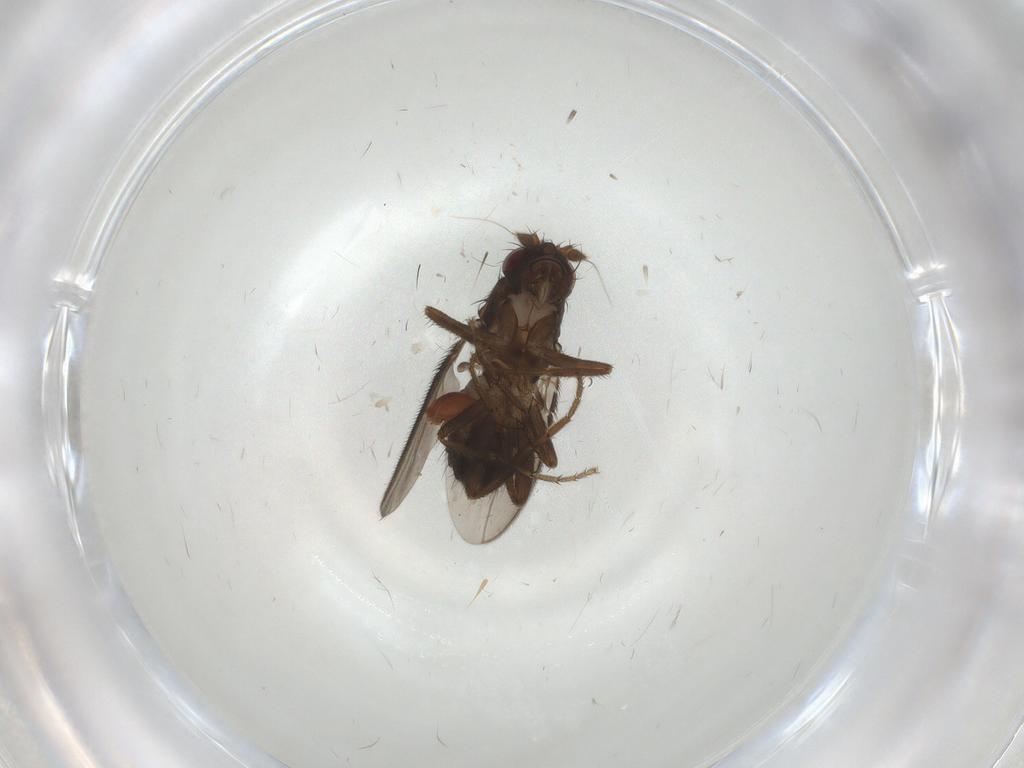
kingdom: Animalia
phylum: Arthropoda
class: Insecta
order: Diptera
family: Sphaeroceridae
